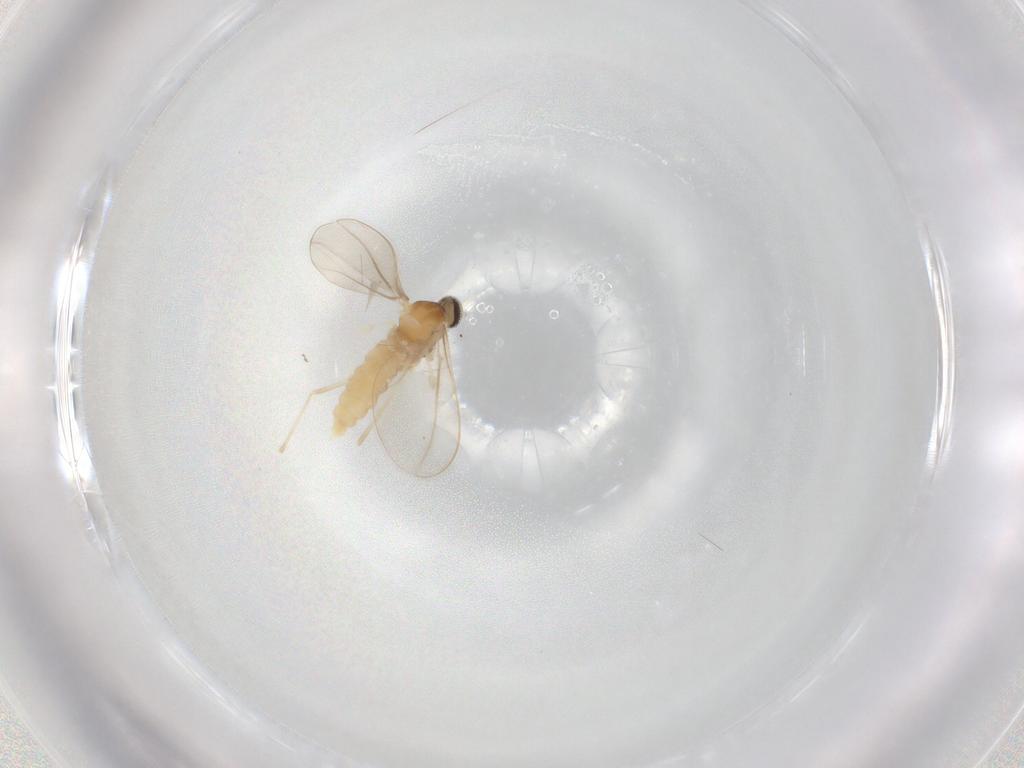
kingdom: Animalia
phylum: Arthropoda
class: Insecta
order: Diptera
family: Cecidomyiidae
